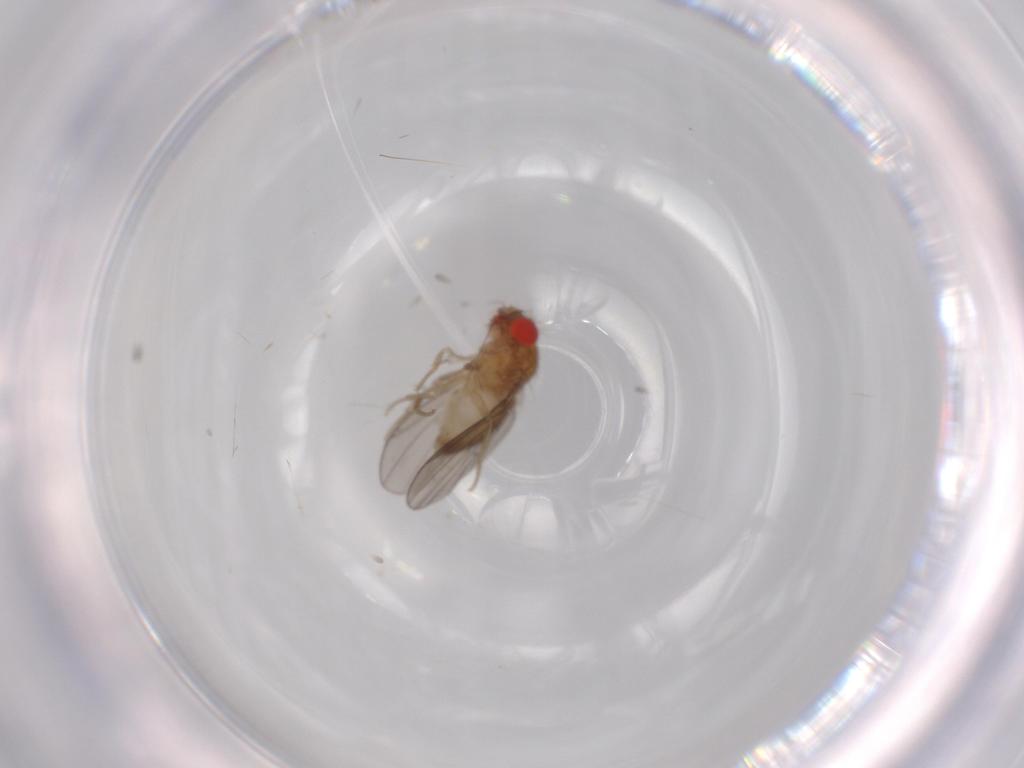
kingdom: Animalia
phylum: Arthropoda
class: Insecta
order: Diptera
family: Drosophilidae
